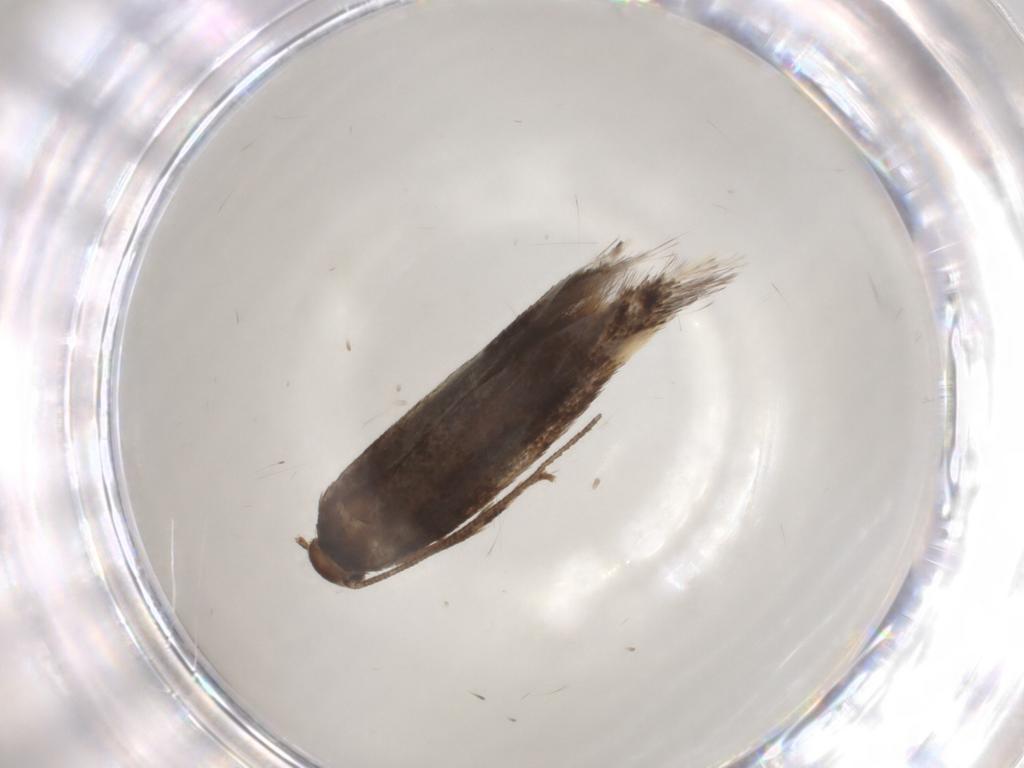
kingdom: Animalia
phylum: Arthropoda
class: Insecta
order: Lepidoptera
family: Elachistidae
